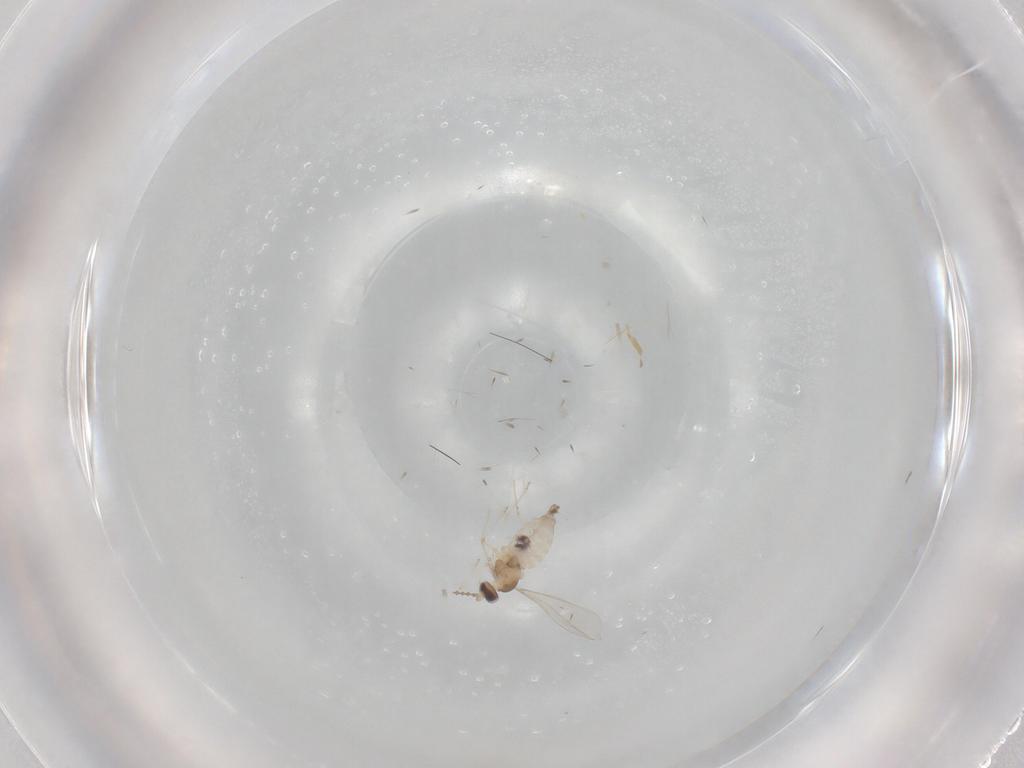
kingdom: Animalia
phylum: Arthropoda
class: Insecta
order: Diptera
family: Cecidomyiidae
